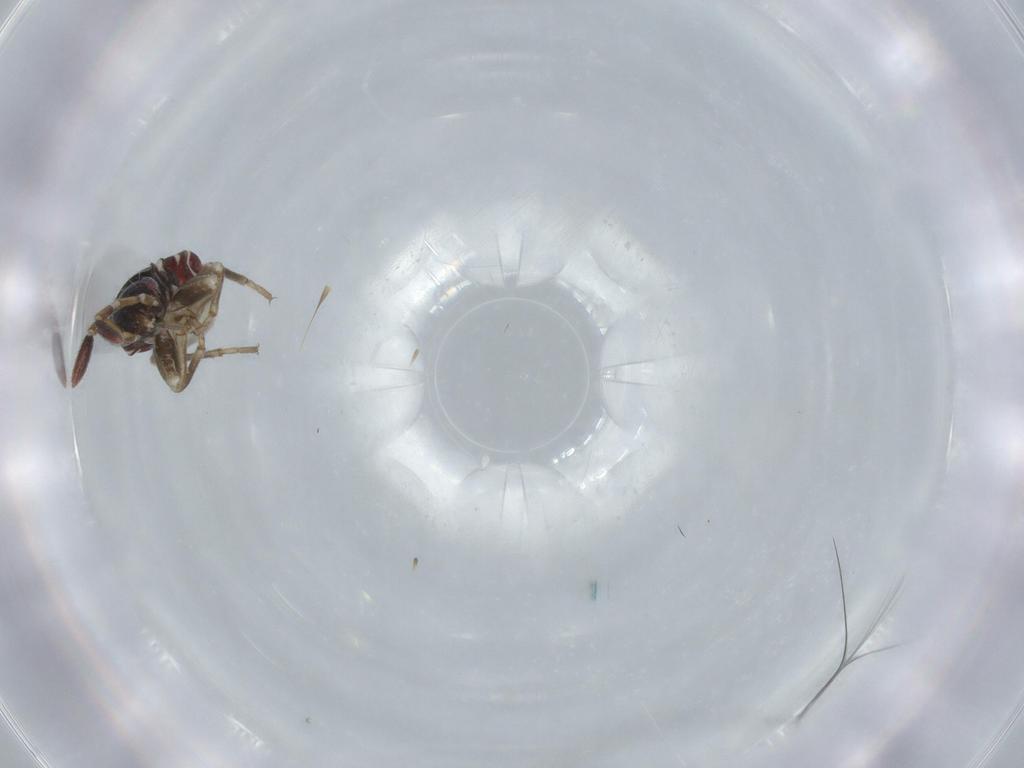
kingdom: Animalia
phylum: Arthropoda
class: Insecta
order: Hemiptera
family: Rhyparochromidae
